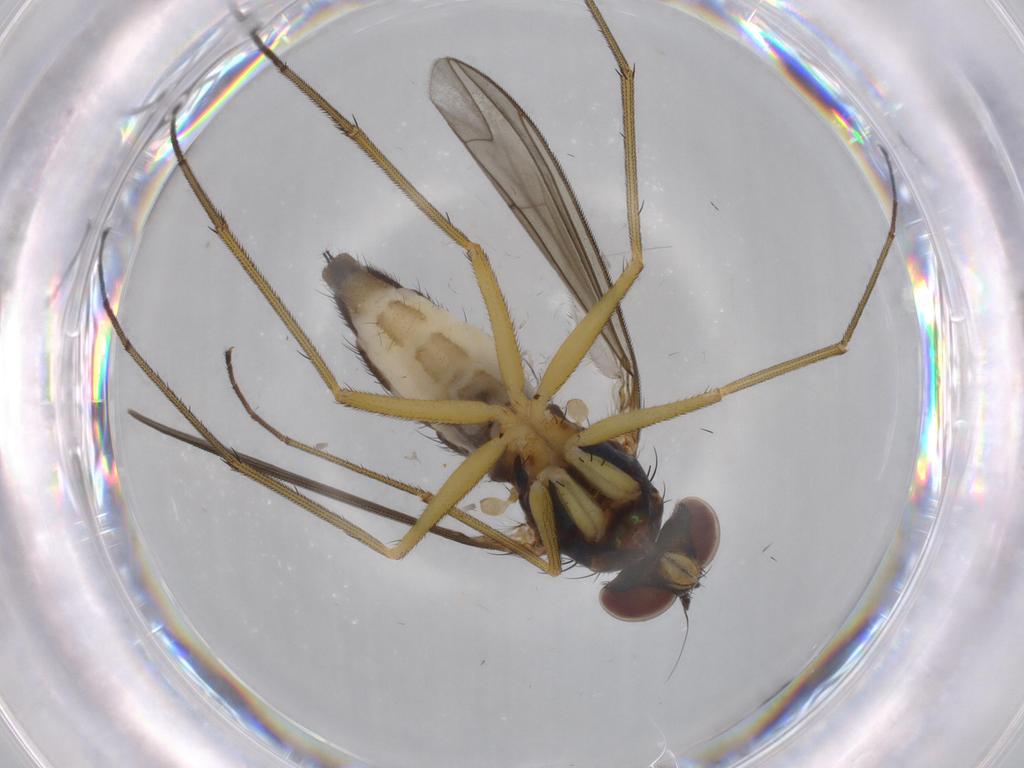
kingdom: Animalia
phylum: Arthropoda
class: Insecta
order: Diptera
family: Dolichopodidae
